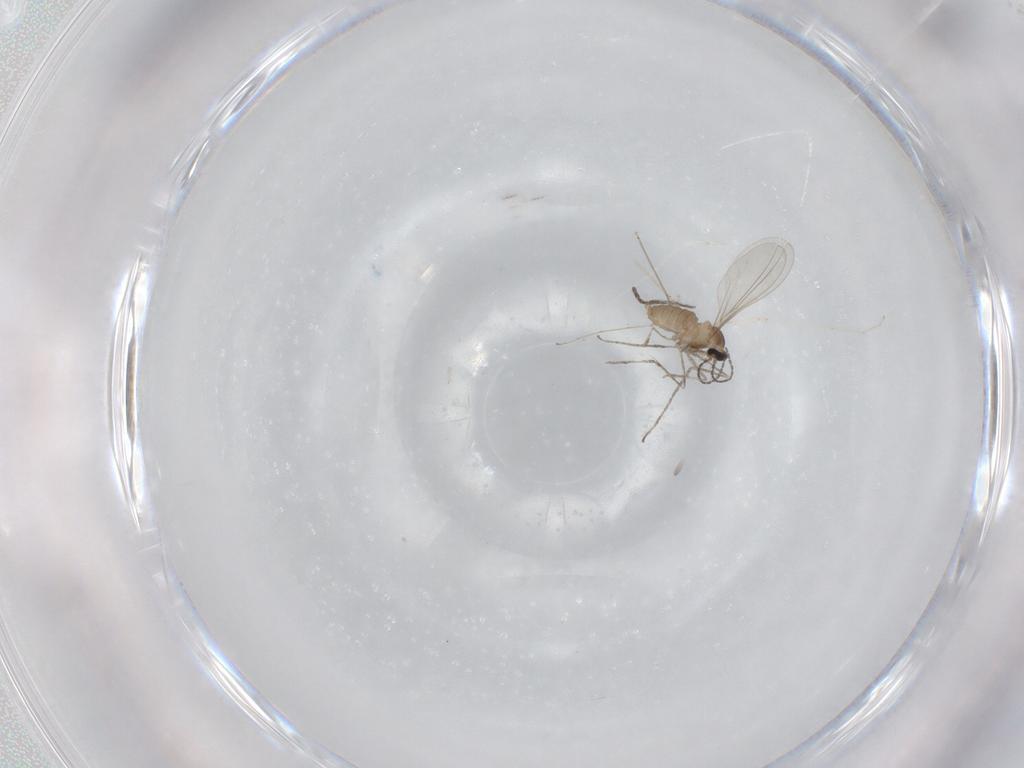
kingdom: Animalia
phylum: Arthropoda
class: Insecta
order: Diptera
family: Cecidomyiidae
